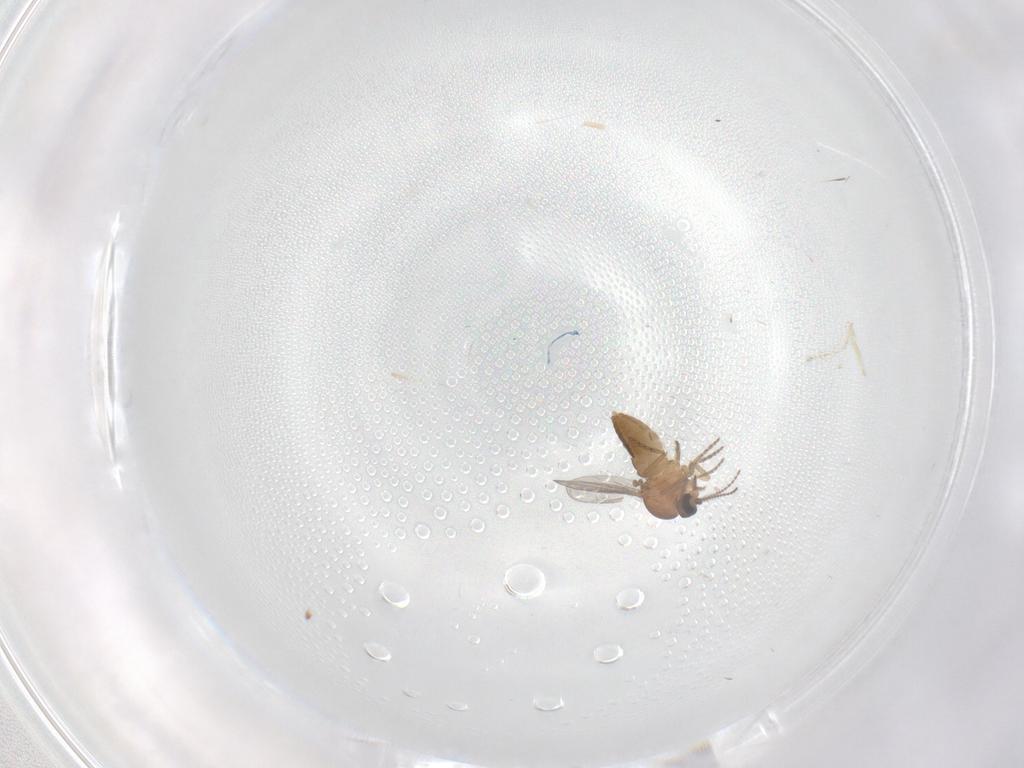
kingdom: Animalia
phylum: Arthropoda
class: Insecta
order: Diptera
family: Ceratopogonidae
